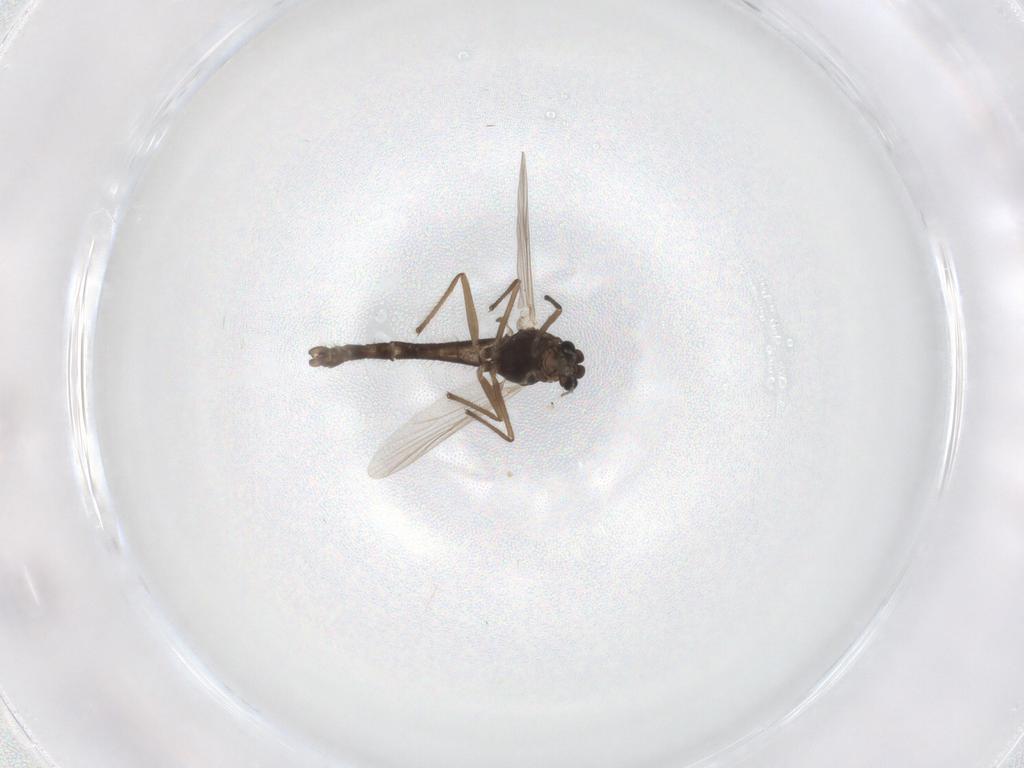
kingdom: Animalia
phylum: Arthropoda
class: Insecta
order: Diptera
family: Chironomidae
